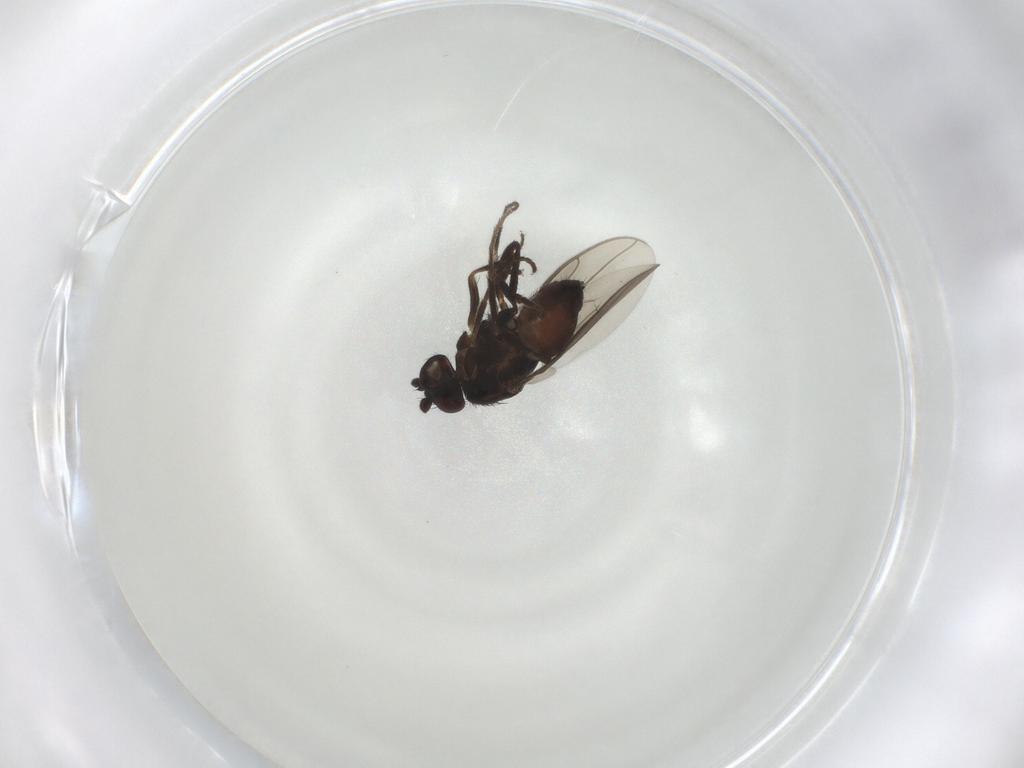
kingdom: Animalia
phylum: Arthropoda
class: Insecta
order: Diptera
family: Sphaeroceridae
